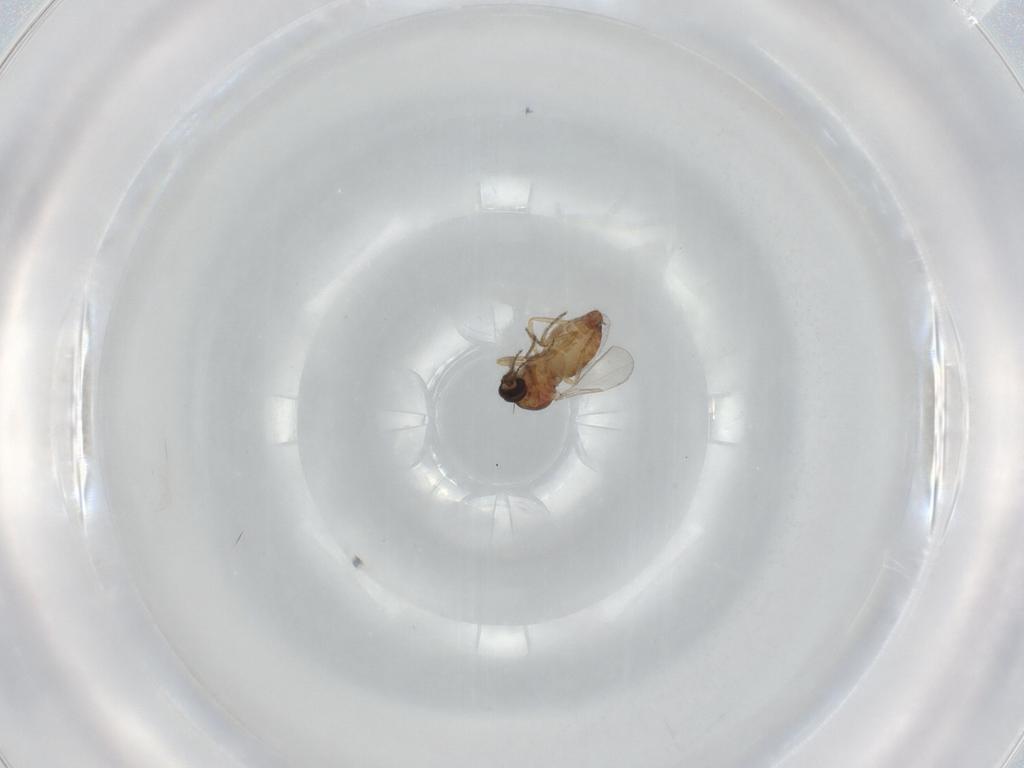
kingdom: Animalia
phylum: Arthropoda
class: Insecta
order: Diptera
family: Ceratopogonidae
